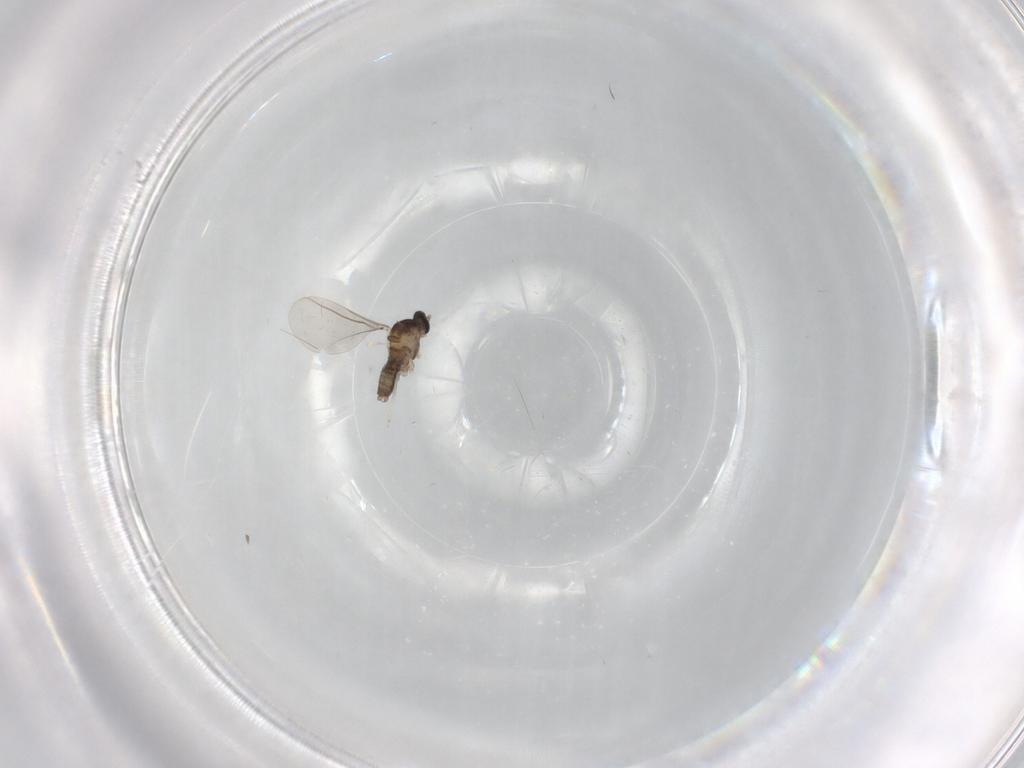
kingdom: Animalia
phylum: Arthropoda
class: Insecta
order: Diptera
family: Cecidomyiidae
